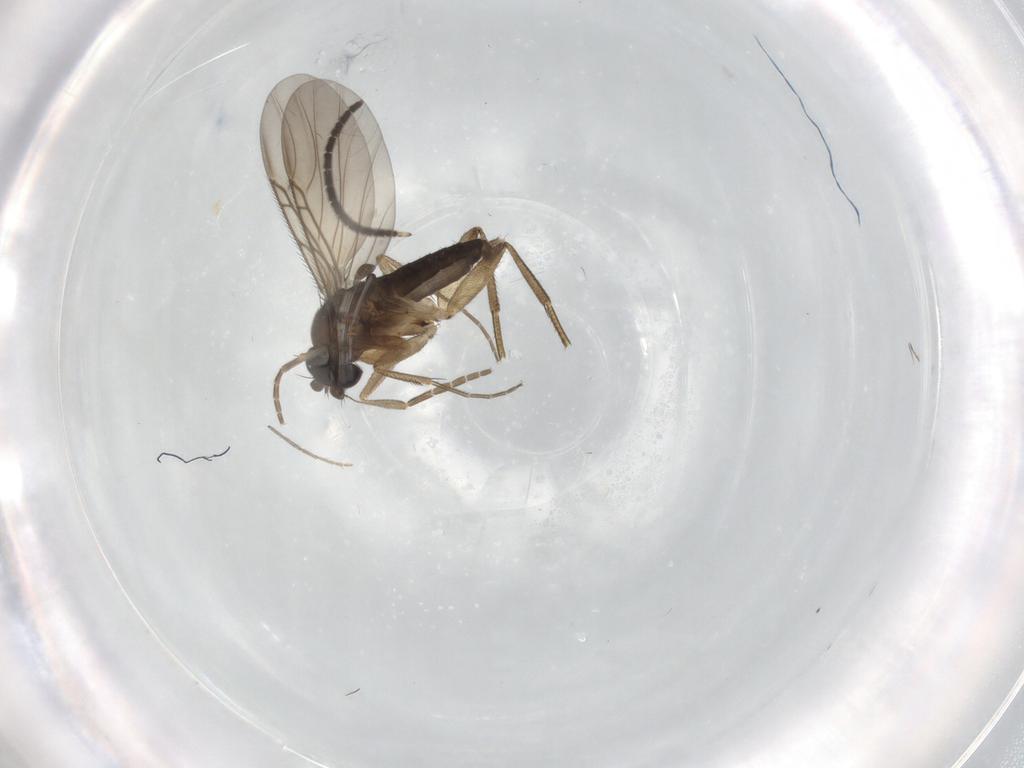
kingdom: Animalia
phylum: Arthropoda
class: Insecta
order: Diptera
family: Phoridae
